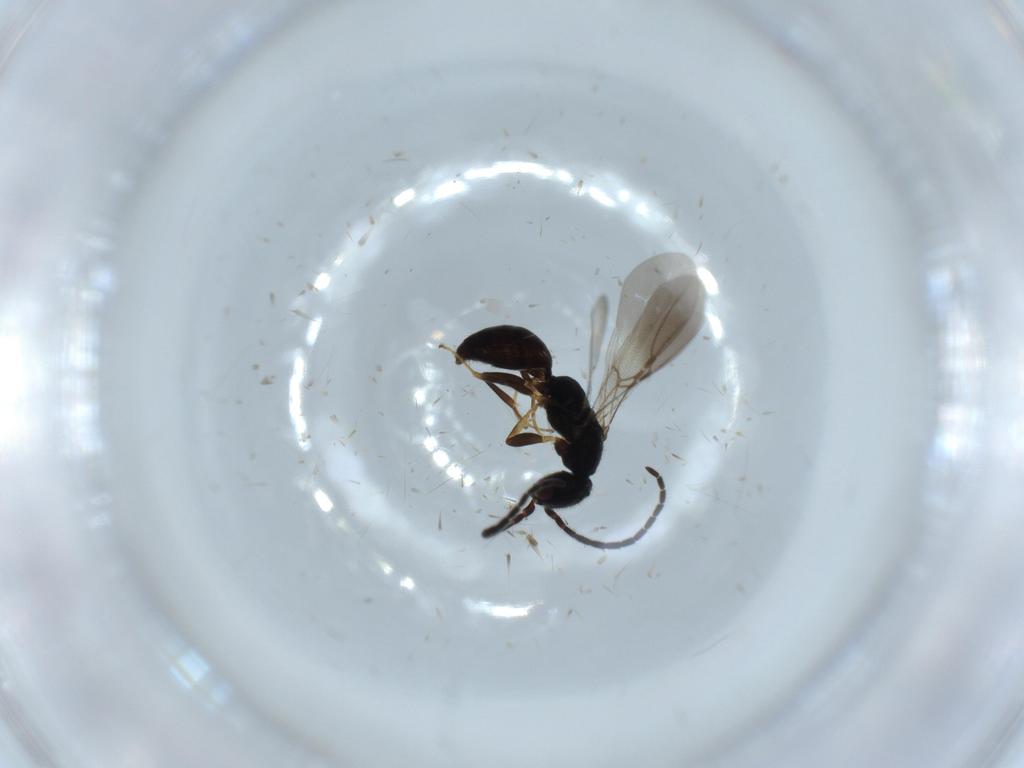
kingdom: Animalia
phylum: Arthropoda
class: Insecta
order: Hymenoptera
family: Bethylidae
